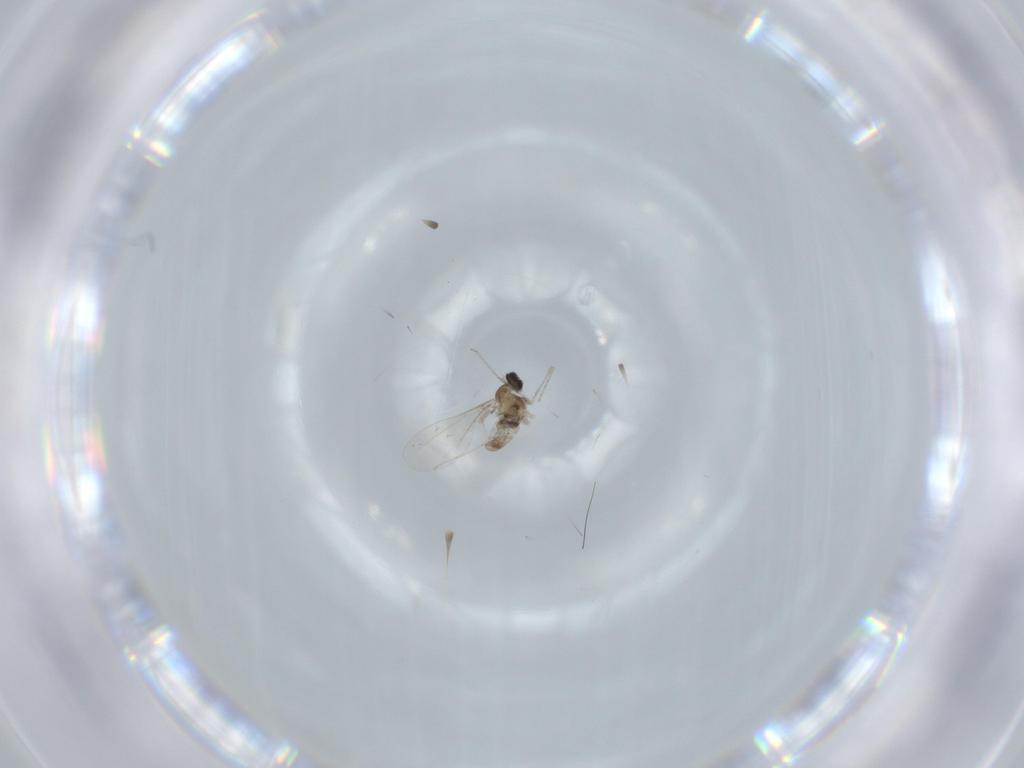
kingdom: Animalia
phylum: Arthropoda
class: Insecta
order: Diptera
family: Cecidomyiidae
